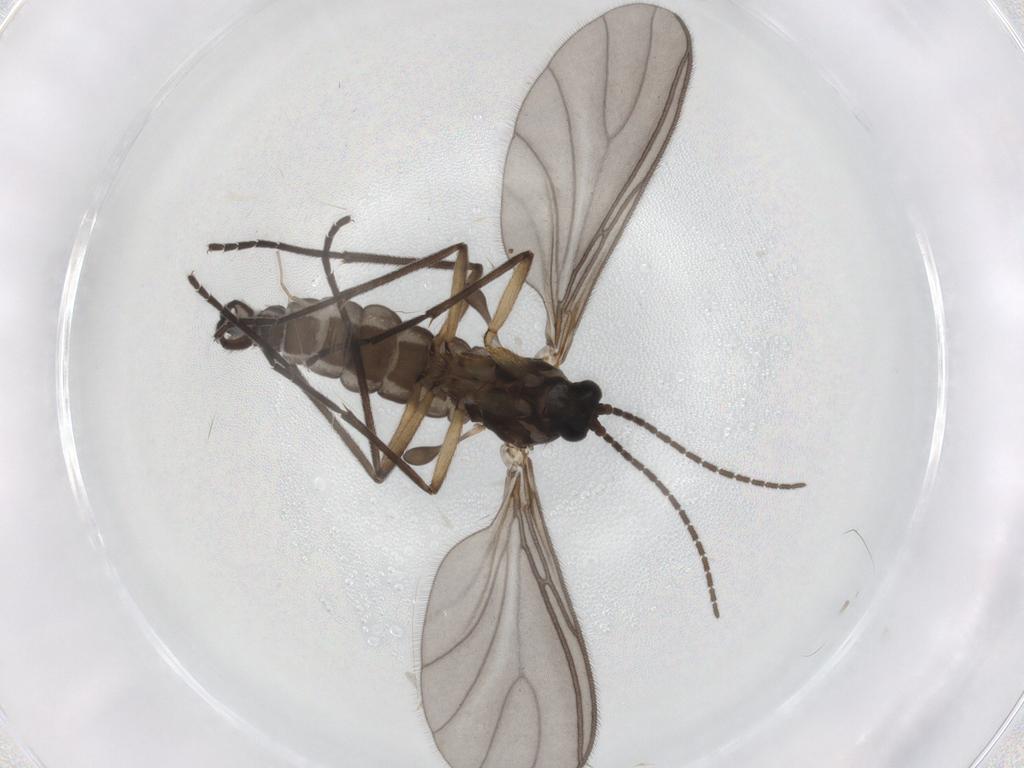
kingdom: Animalia
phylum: Arthropoda
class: Insecta
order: Diptera
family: Sciaridae
